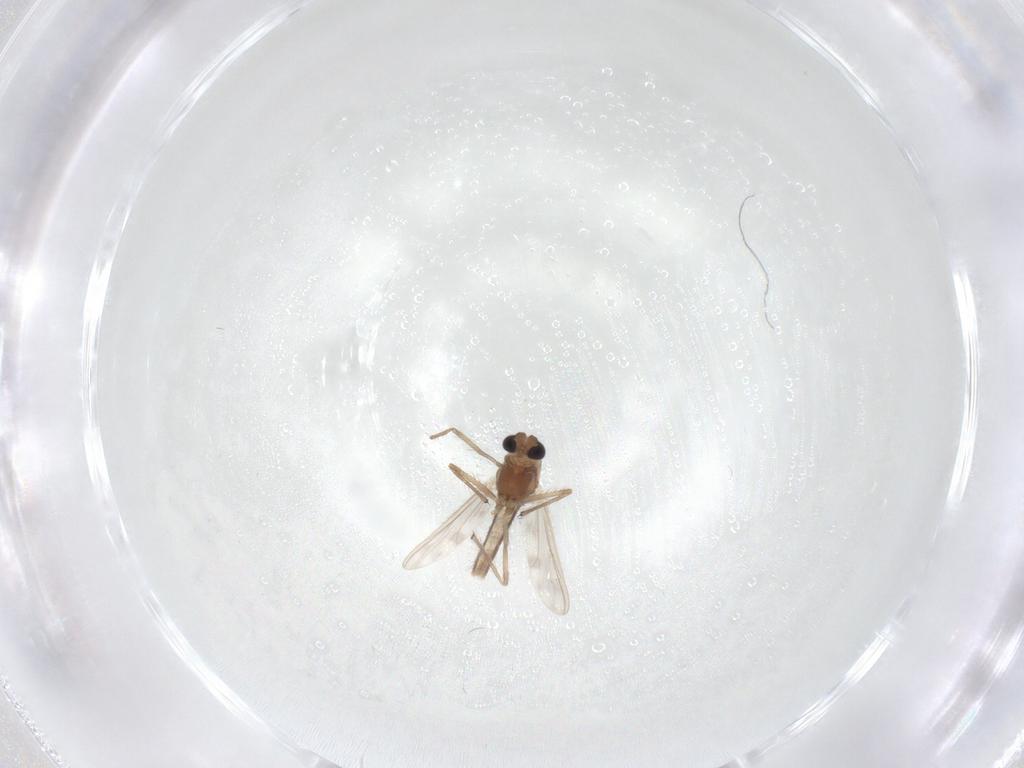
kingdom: Animalia
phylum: Arthropoda
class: Insecta
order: Diptera
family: Chironomidae
